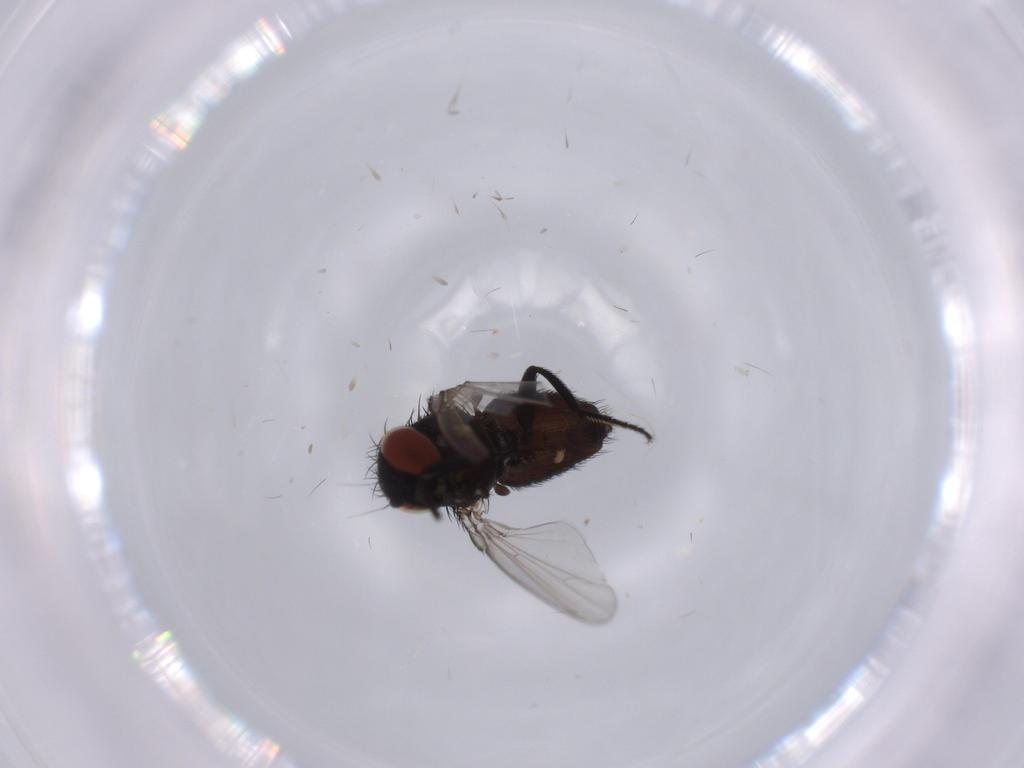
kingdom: Animalia
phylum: Arthropoda
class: Insecta
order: Diptera
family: Milichiidae
